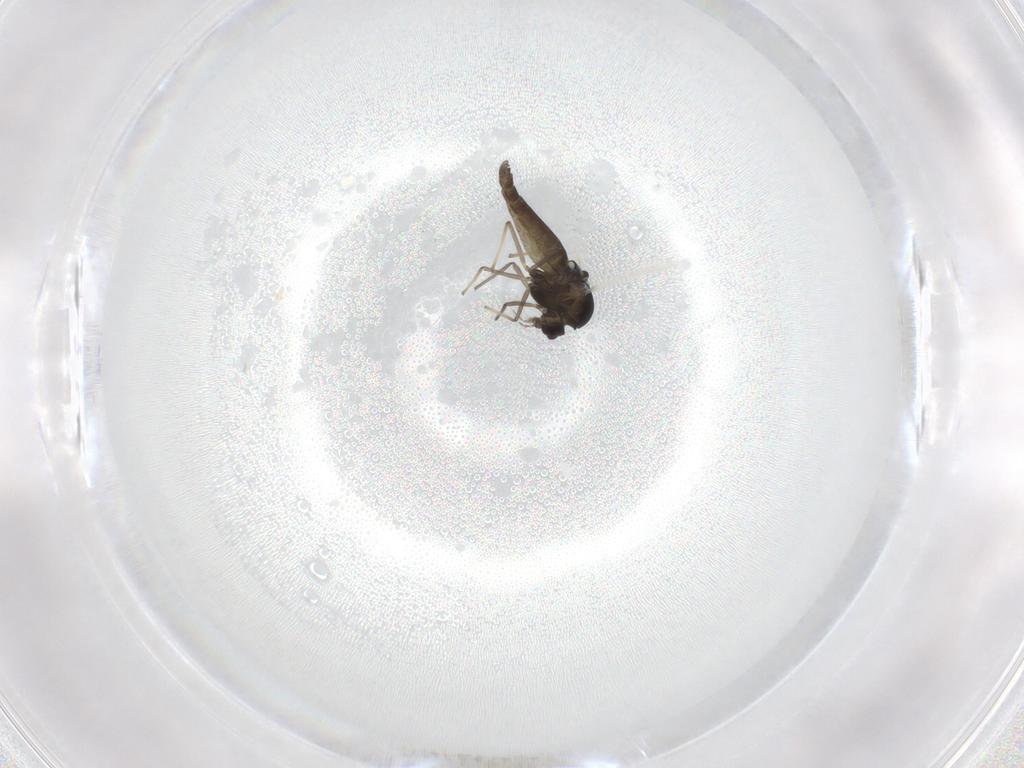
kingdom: Animalia
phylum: Arthropoda
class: Insecta
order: Diptera
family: Chironomidae
